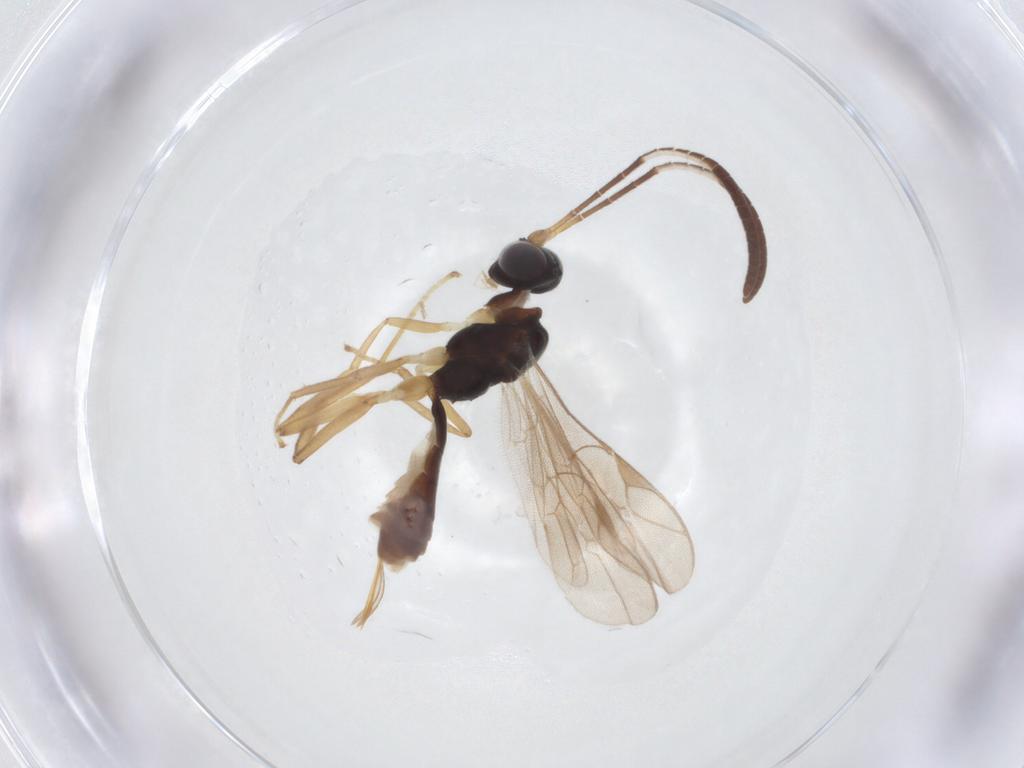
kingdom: Animalia
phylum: Arthropoda
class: Insecta
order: Hymenoptera
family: Ichneumonidae
